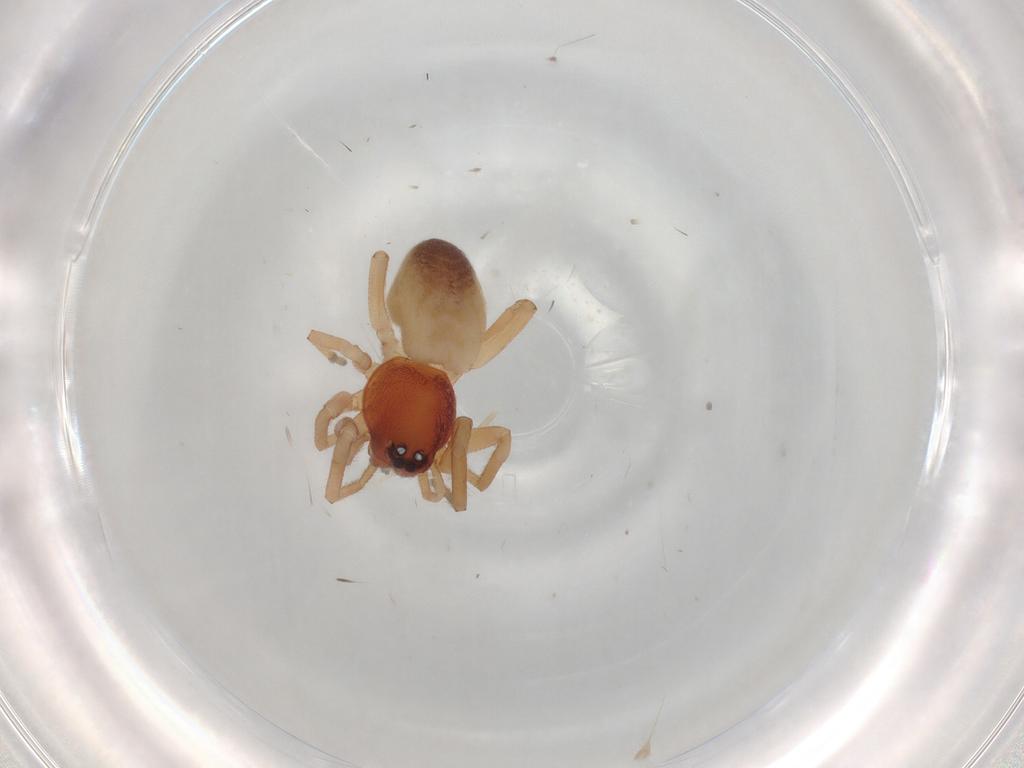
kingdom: Animalia
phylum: Arthropoda
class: Arachnida
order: Araneae
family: Trachelidae
